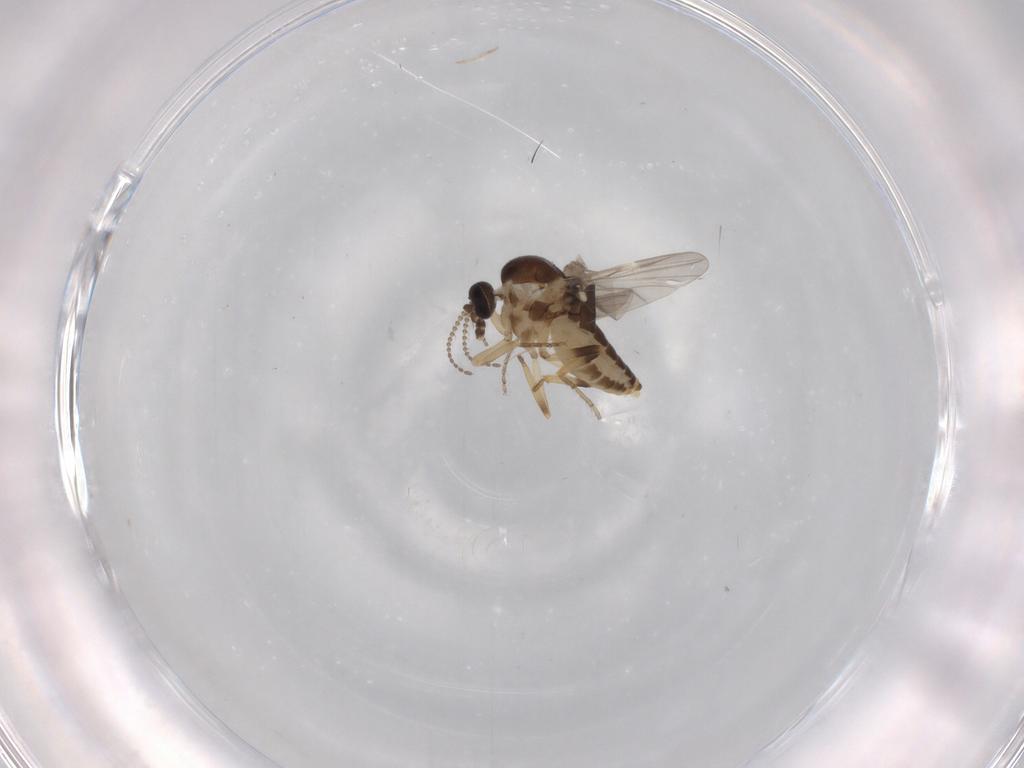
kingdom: Animalia
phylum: Arthropoda
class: Insecta
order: Diptera
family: Ceratopogonidae
